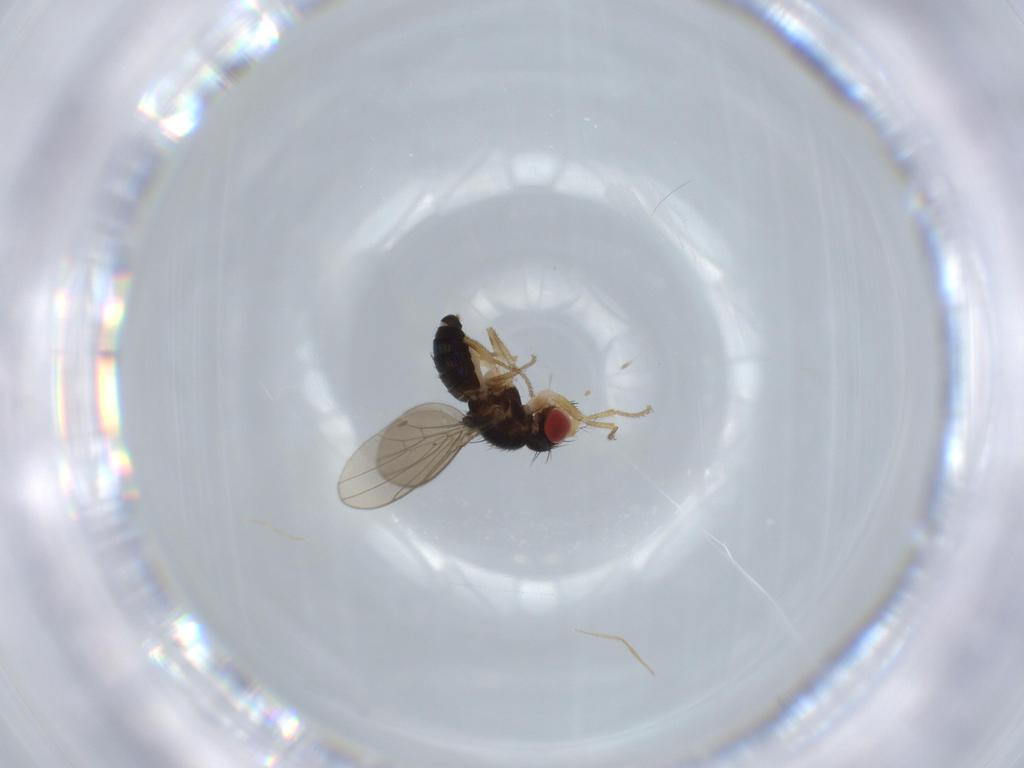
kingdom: Animalia
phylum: Arthropoda
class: Insecta
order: Diptera
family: Drosophilidae
